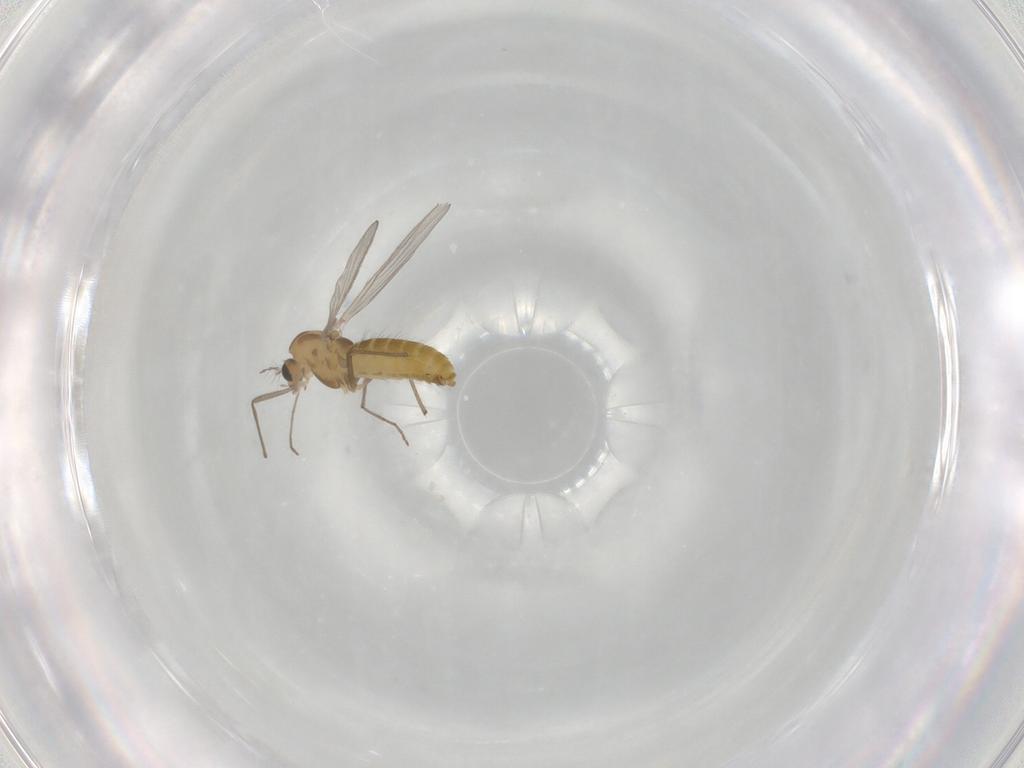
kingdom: Animalia
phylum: Arthropoda
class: Insecta
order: Diptera
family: Chironomidae
